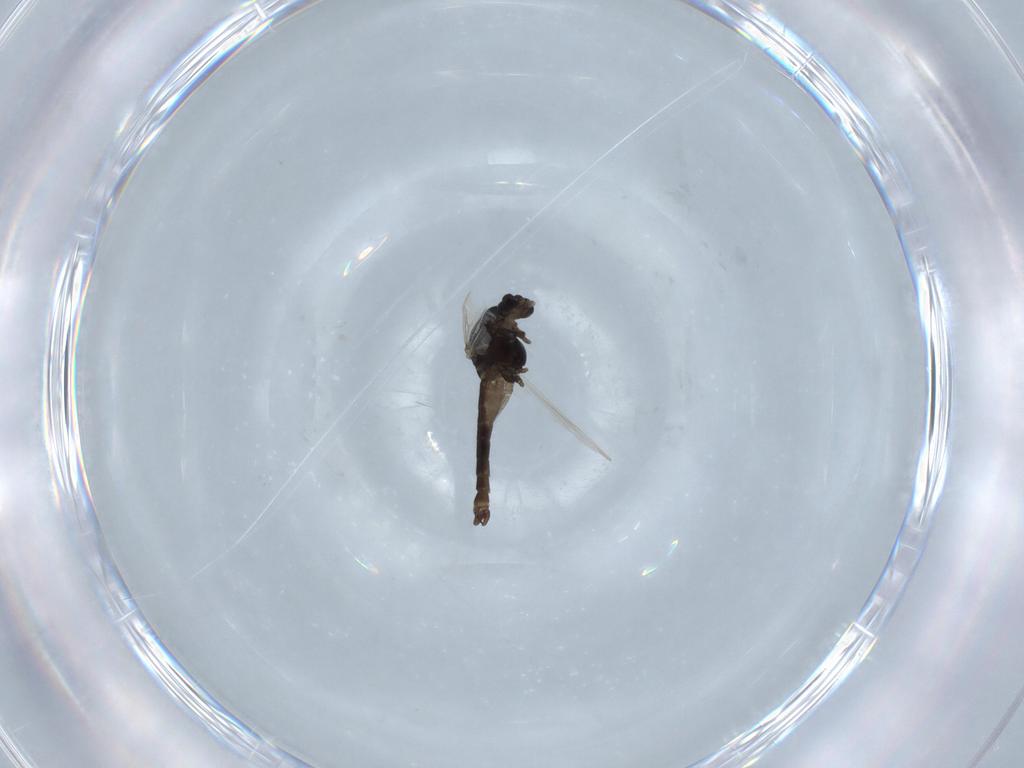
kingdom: Animalia
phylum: Arthropoda
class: Insecta
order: Diptera
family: Chironomidae
